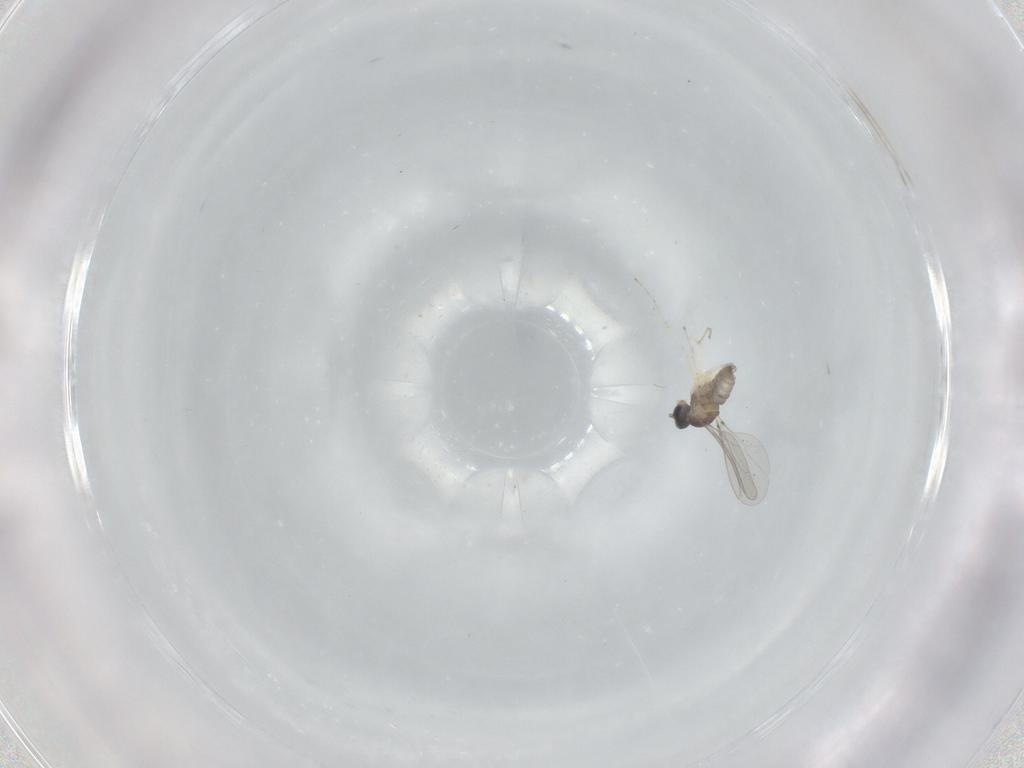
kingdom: Animalia
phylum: Arthropoda
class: Insecta
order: Diptera
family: Cecidomyiidae
